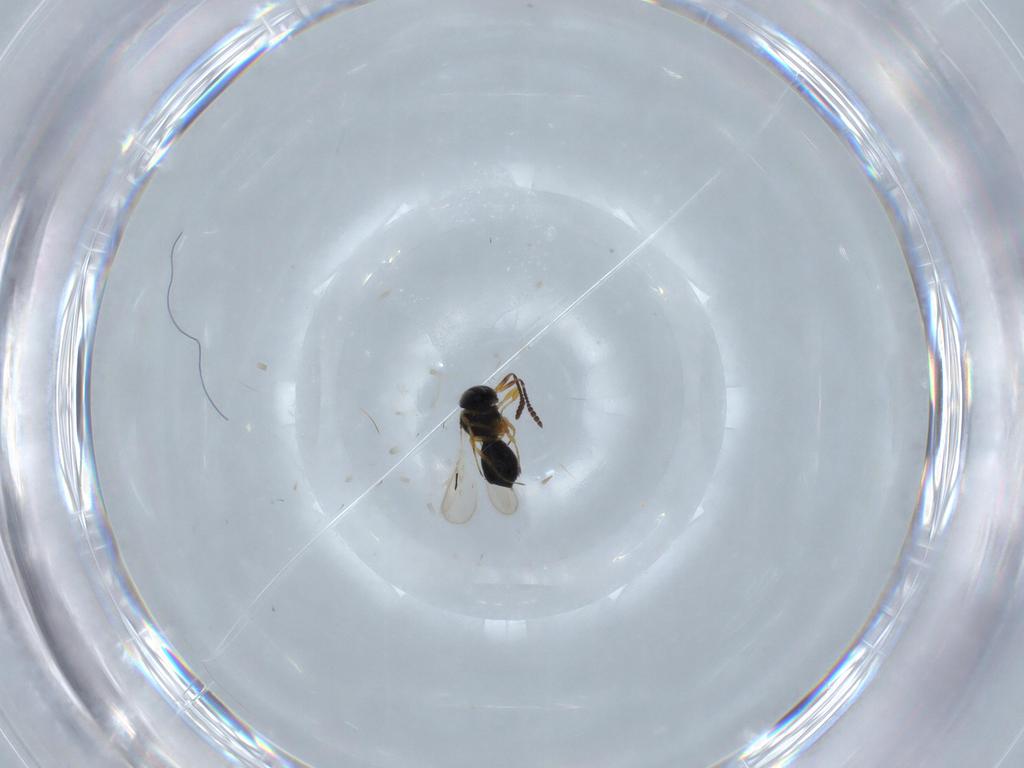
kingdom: Animalia
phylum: Arthropoda
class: Insecta
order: Hymenoptera
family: Scelionidae
